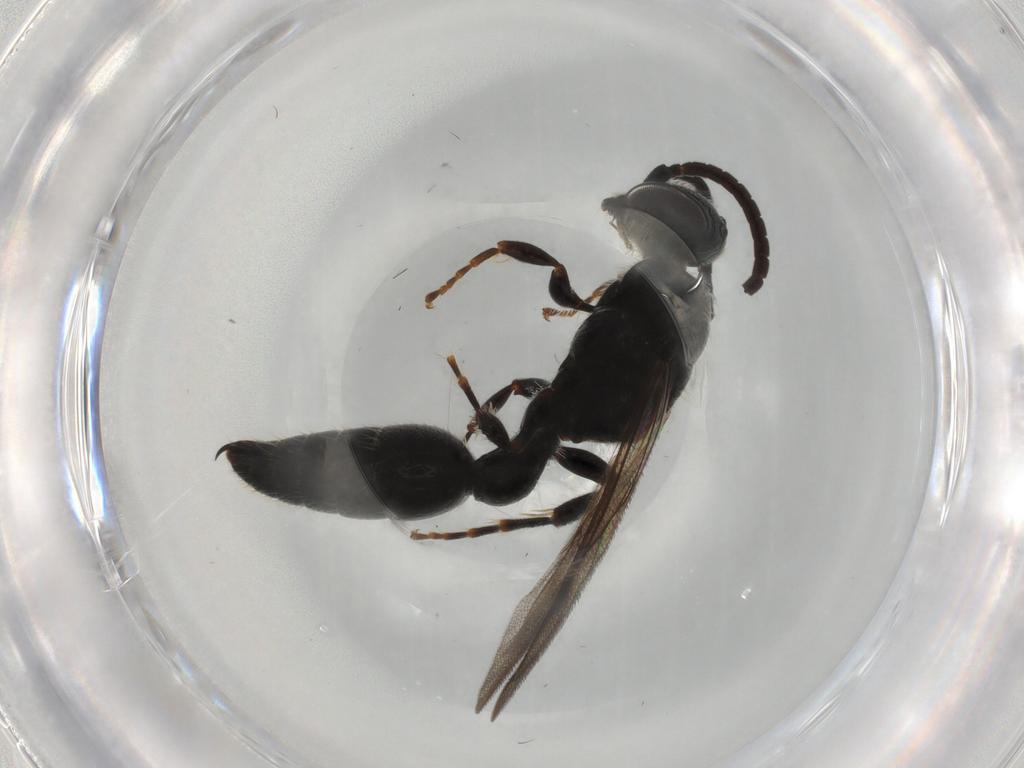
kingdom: Animalia
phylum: Arthropoda
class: Insecta
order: Hymenoptera
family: Tiphiidae
